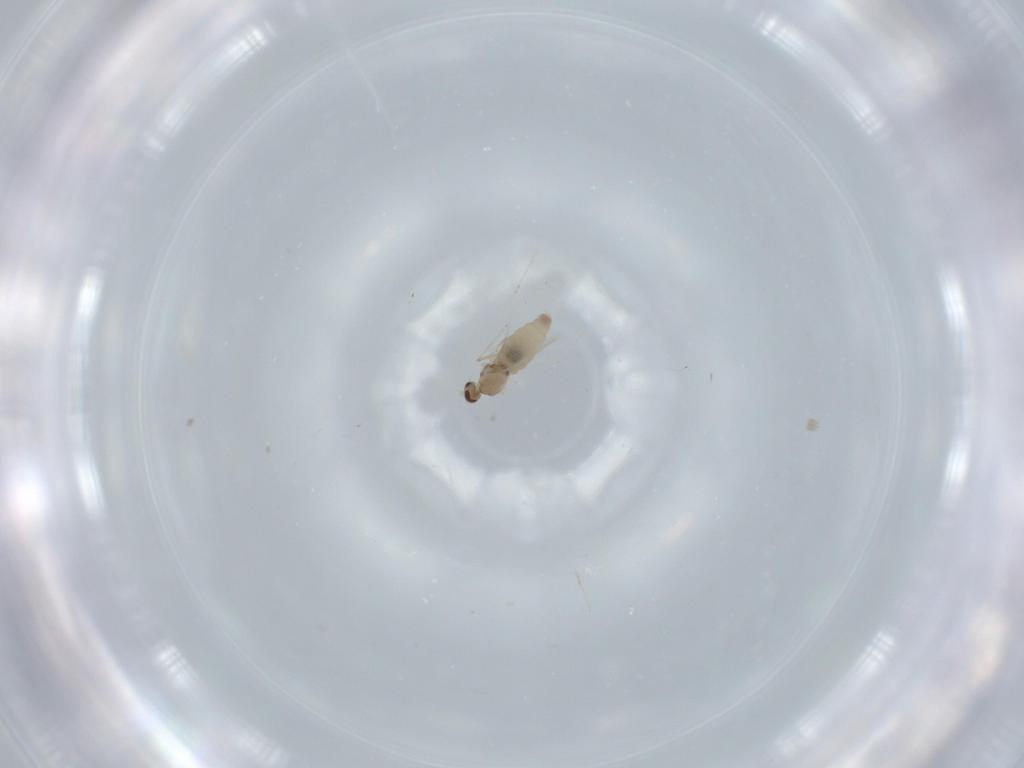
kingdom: Animalia
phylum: Arthropoda
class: Insecta
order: Diptera
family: Cecidomyiidae
